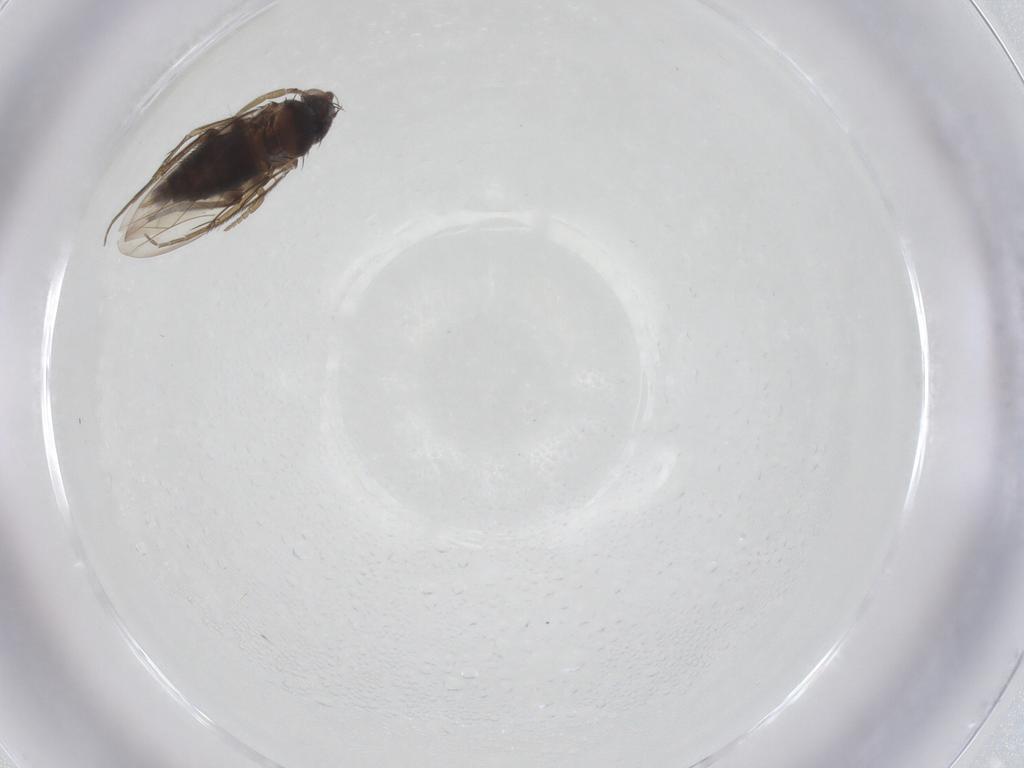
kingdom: Animalia
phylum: Arthropoda
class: Insecta
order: Diptera
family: Phoridae
